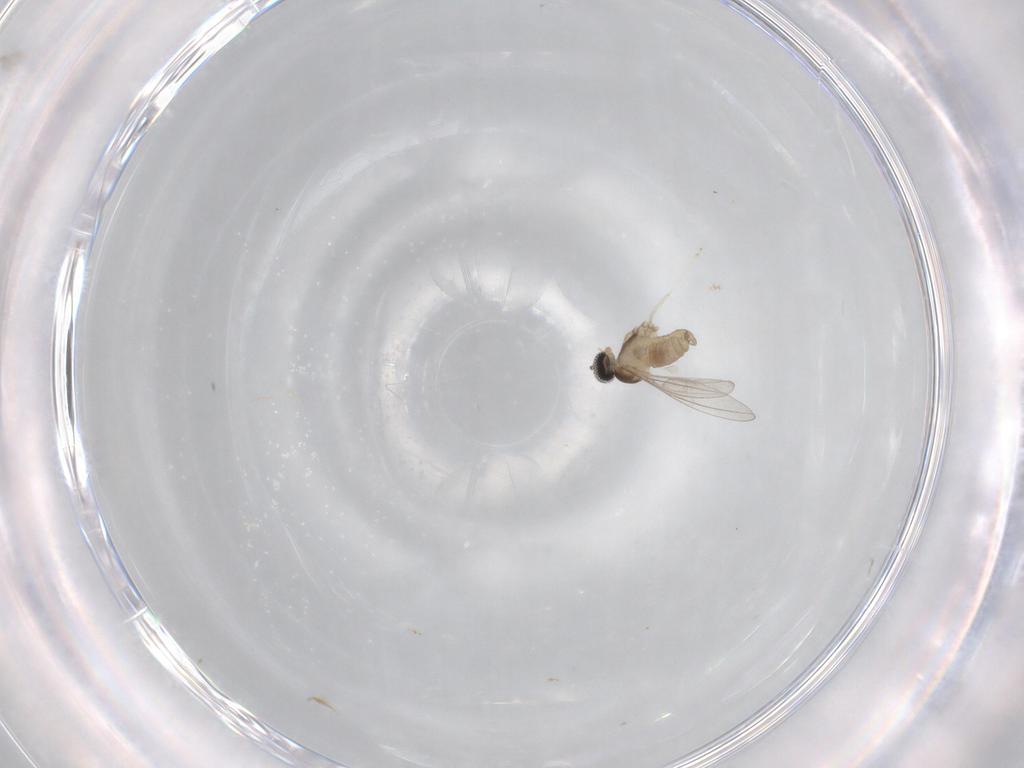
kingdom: Animalia
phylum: Arthropoda
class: Insecta
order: Diptera
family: Cecidomyiidae
